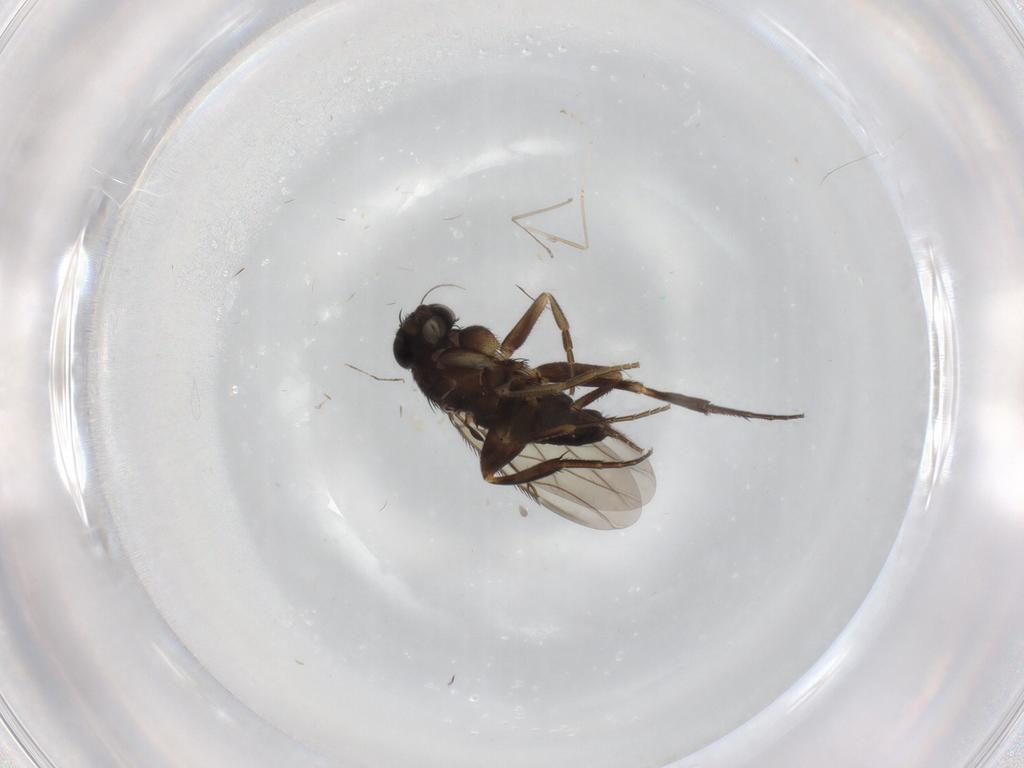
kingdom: Animalia
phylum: Arthropoda
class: Insecta
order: Diptera
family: Phoridae
